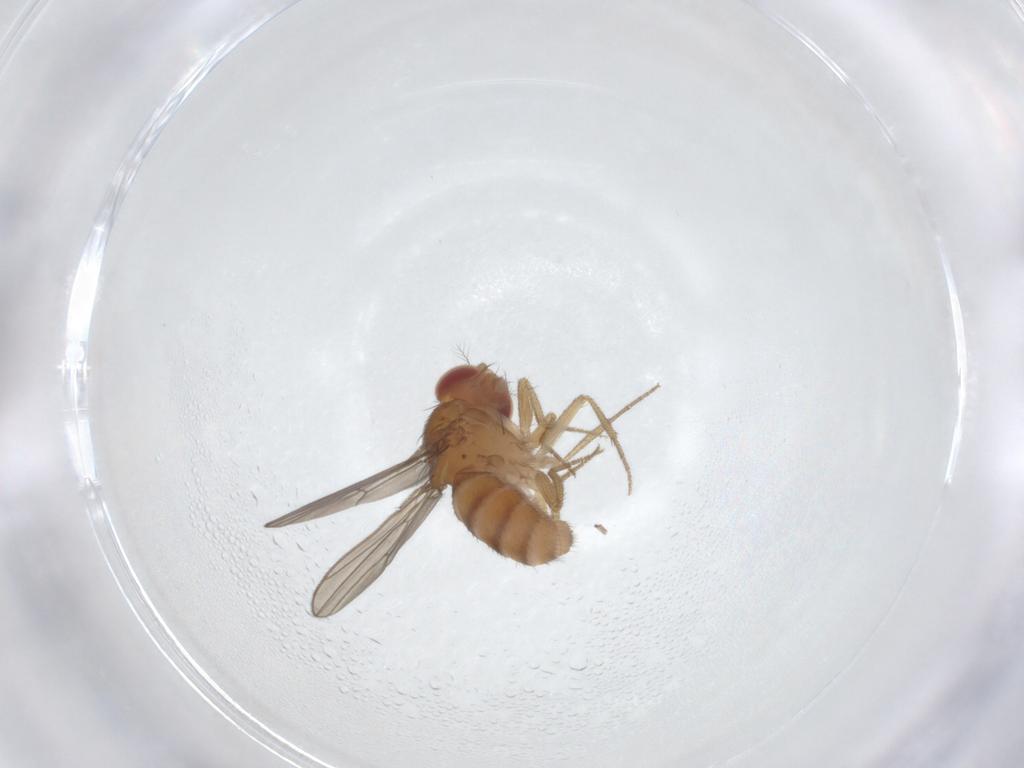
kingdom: Animalia
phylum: Arthropoda
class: Insecta
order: Diptera
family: Drosophilidae
